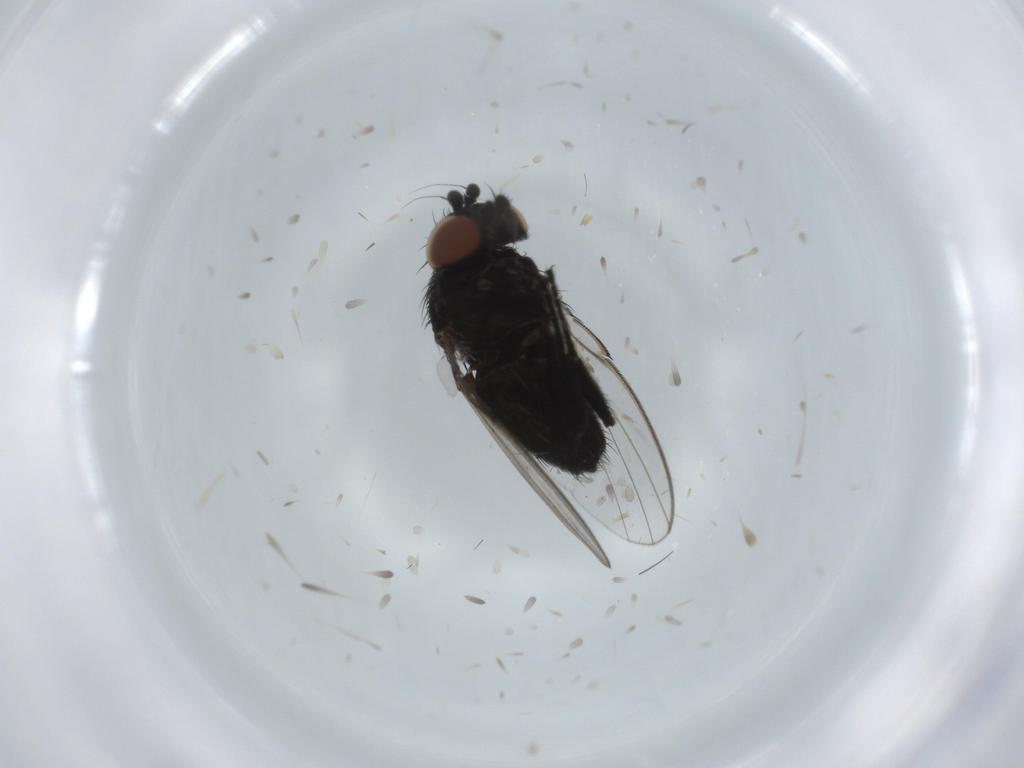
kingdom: Animalia
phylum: Arthropoda
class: Insecta
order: Diptera
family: Milichiidae
